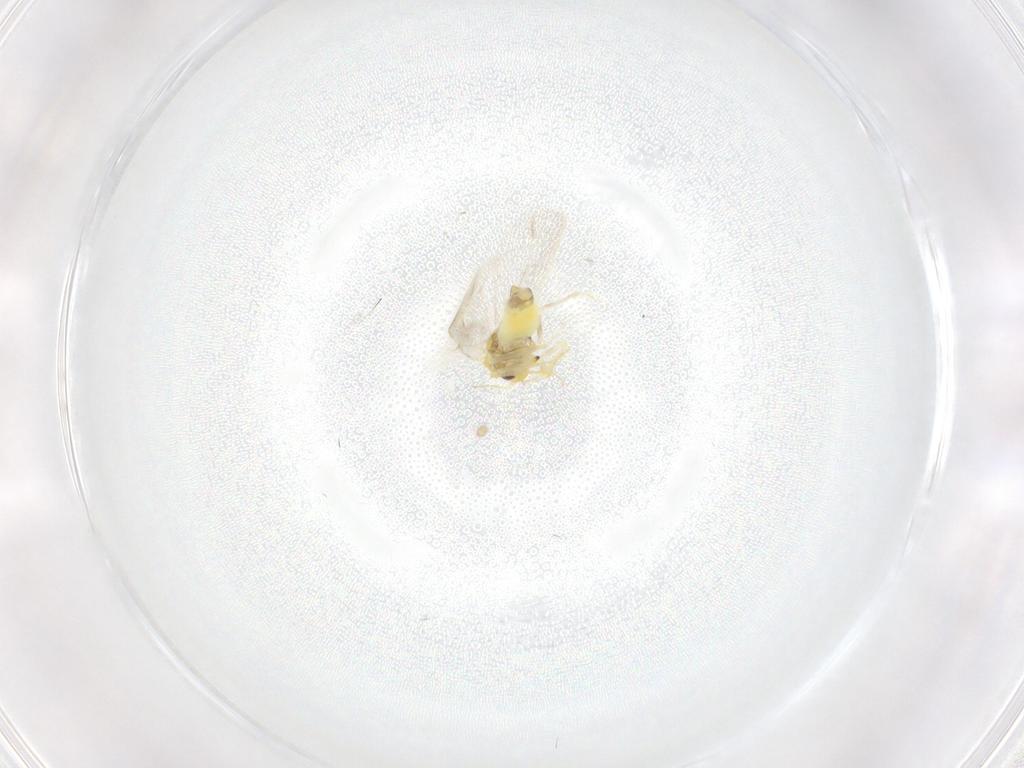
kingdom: Animalia
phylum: Arthropoda
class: Insecta
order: Hemiptera
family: Aleyrodidae
